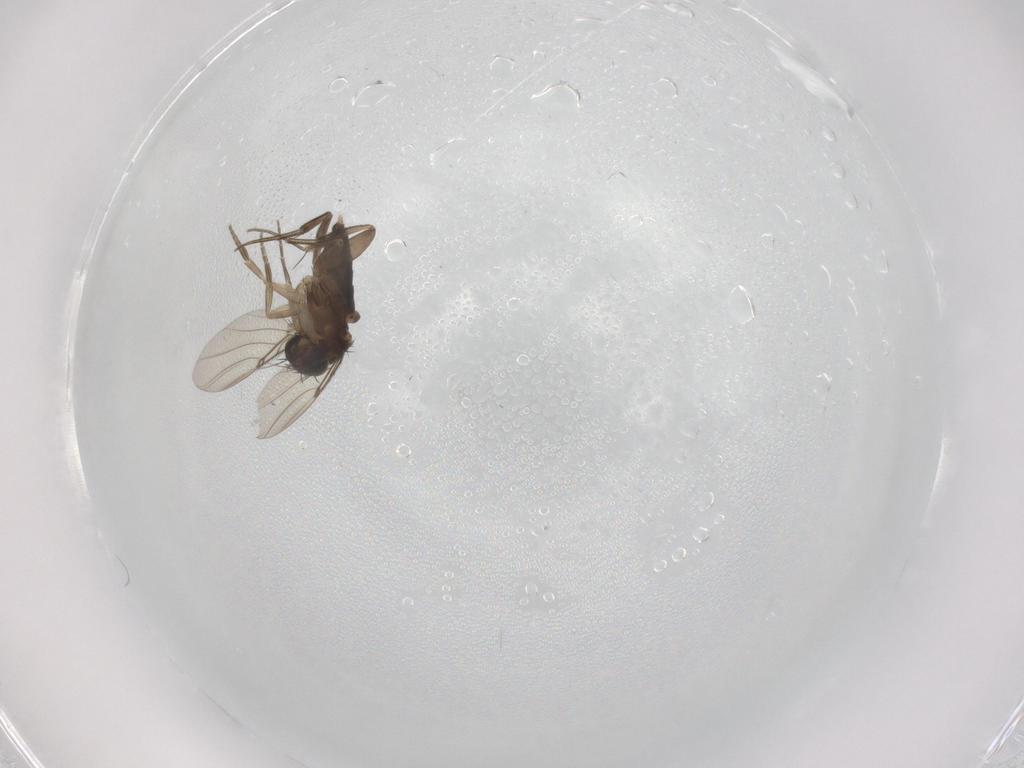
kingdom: Animalia
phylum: Arthropoda
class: Insecta
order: Diptera
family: Phoridae
